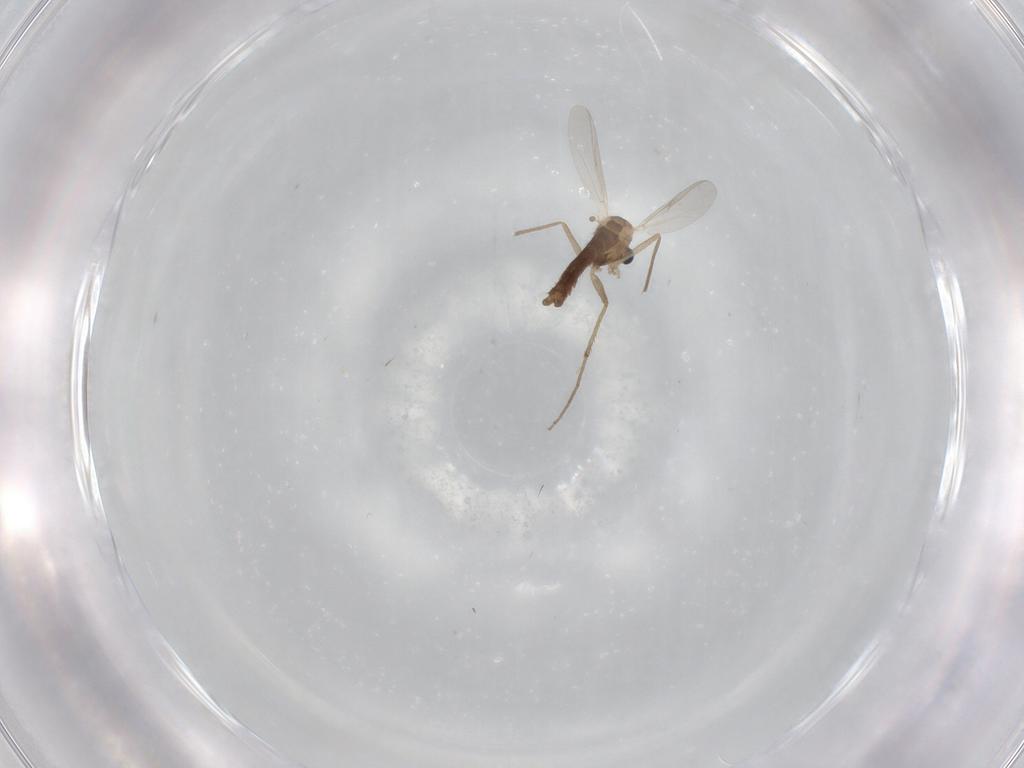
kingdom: Animalia
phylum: Arthropoda
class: Insecta
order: Diptera
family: Chironomidae
